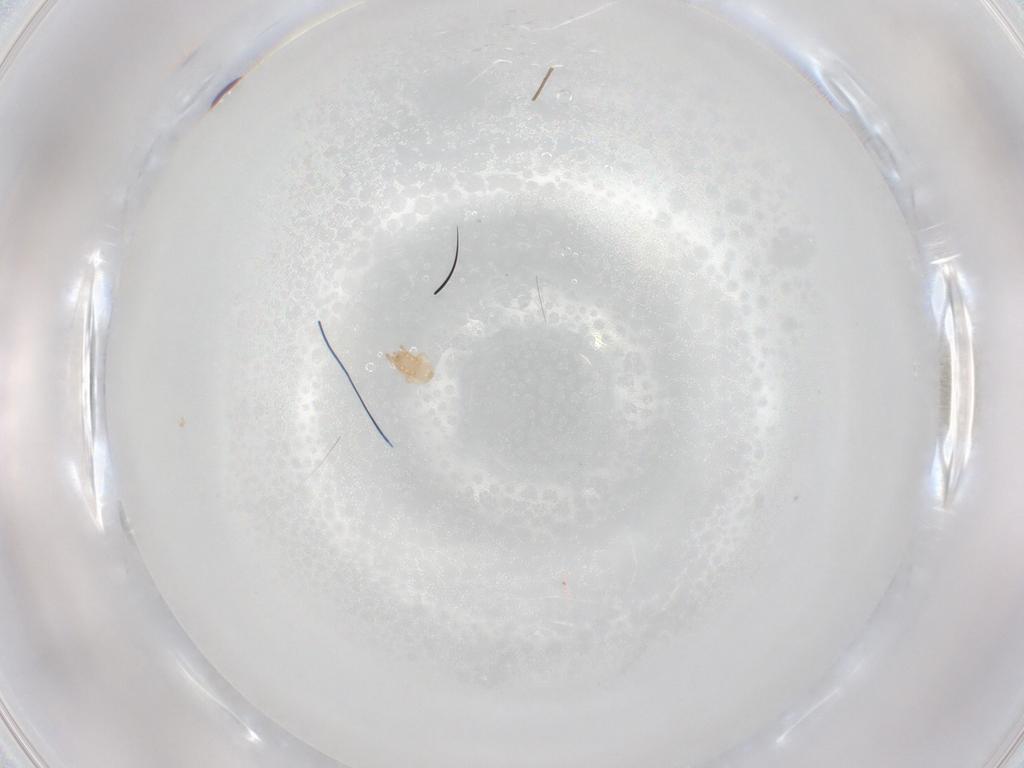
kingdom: Animalia
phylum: Arthropoda
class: Arachnida
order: Mesostigmata
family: Ascidae
